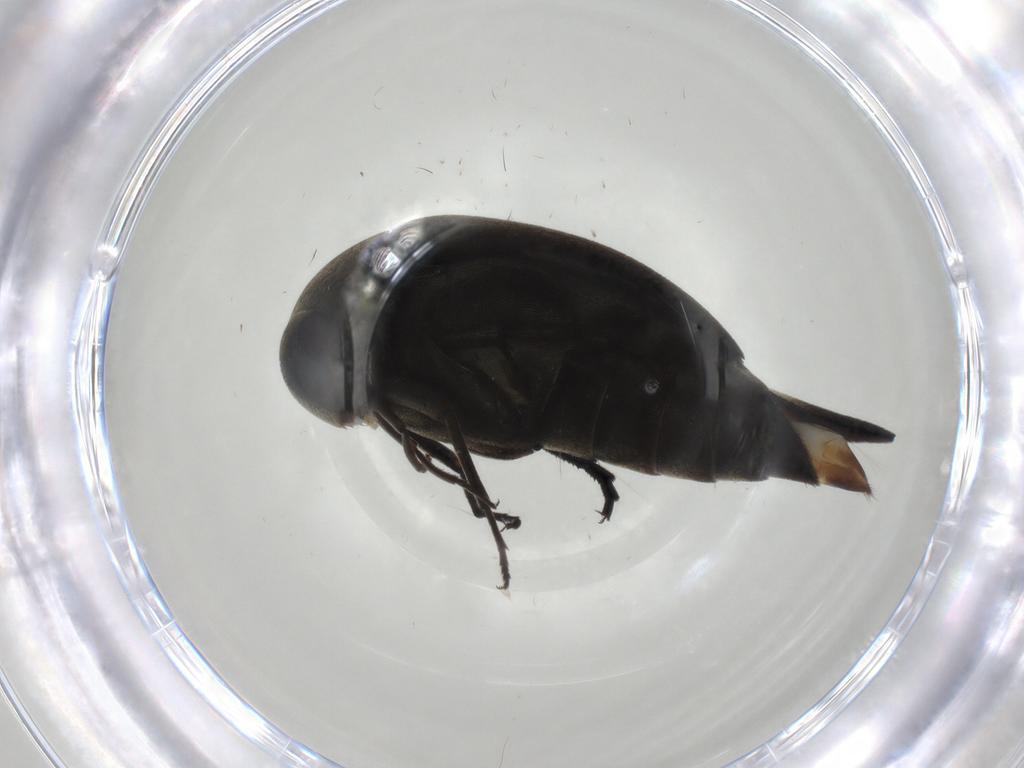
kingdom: Animalia
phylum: Arthropoda
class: Insecta
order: Coleoptera
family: Mordellidae
